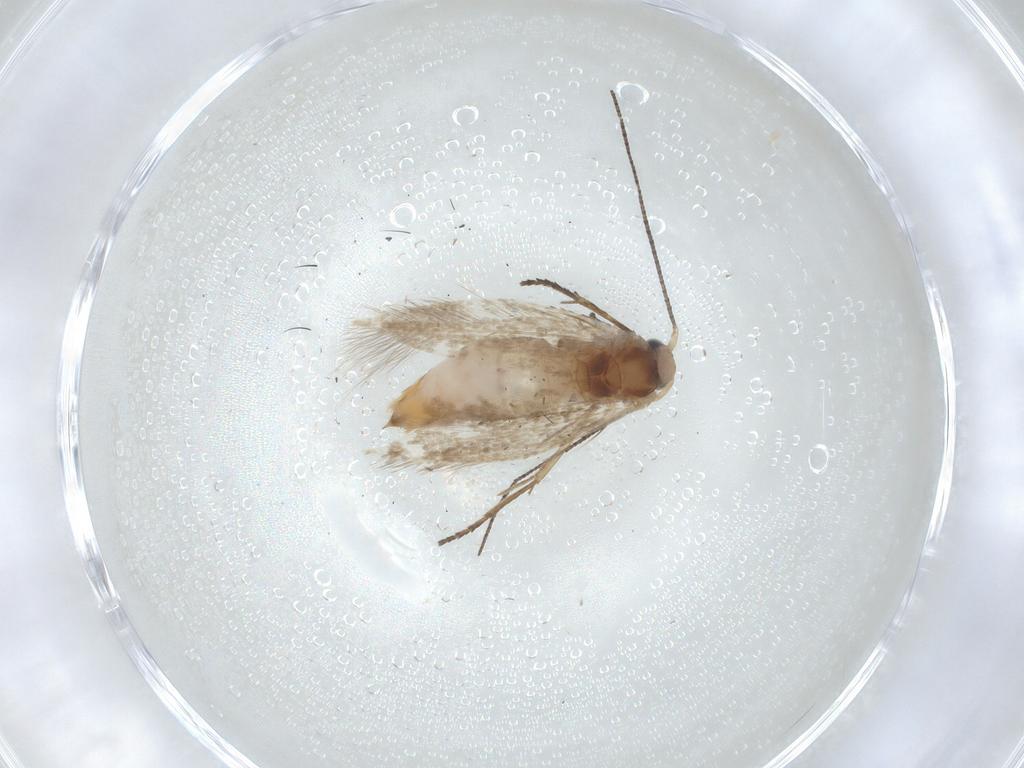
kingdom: Animalia
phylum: Arthropoda
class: Insecta
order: Lepidoptera
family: Bucculatricidae
